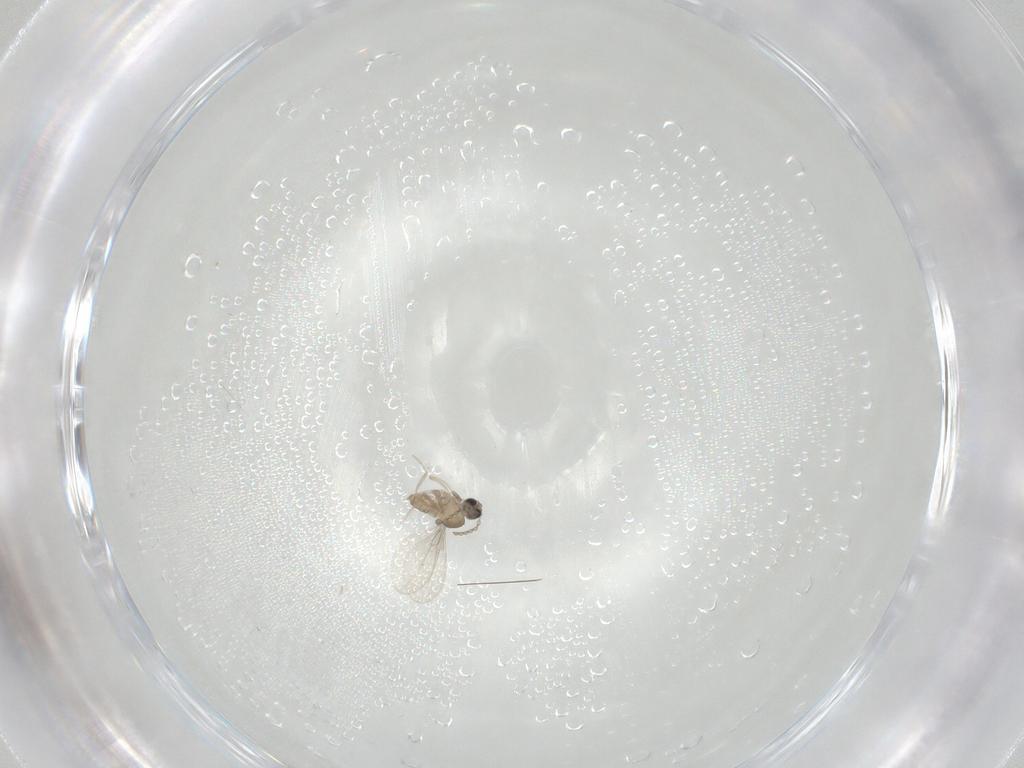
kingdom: Animalia
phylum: Arthropoda
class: Insecta
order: Diptera
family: Cecidomyiidae
